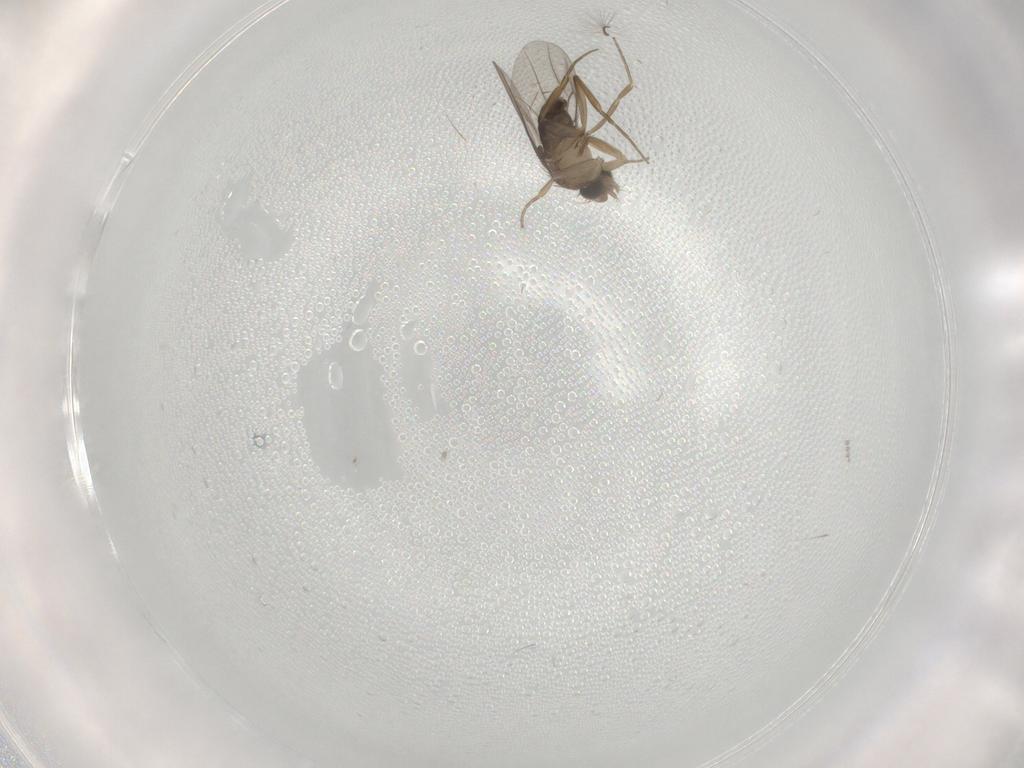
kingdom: Animalia
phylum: Arthropoda
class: Insecta
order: Diptera
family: Chironomidae
